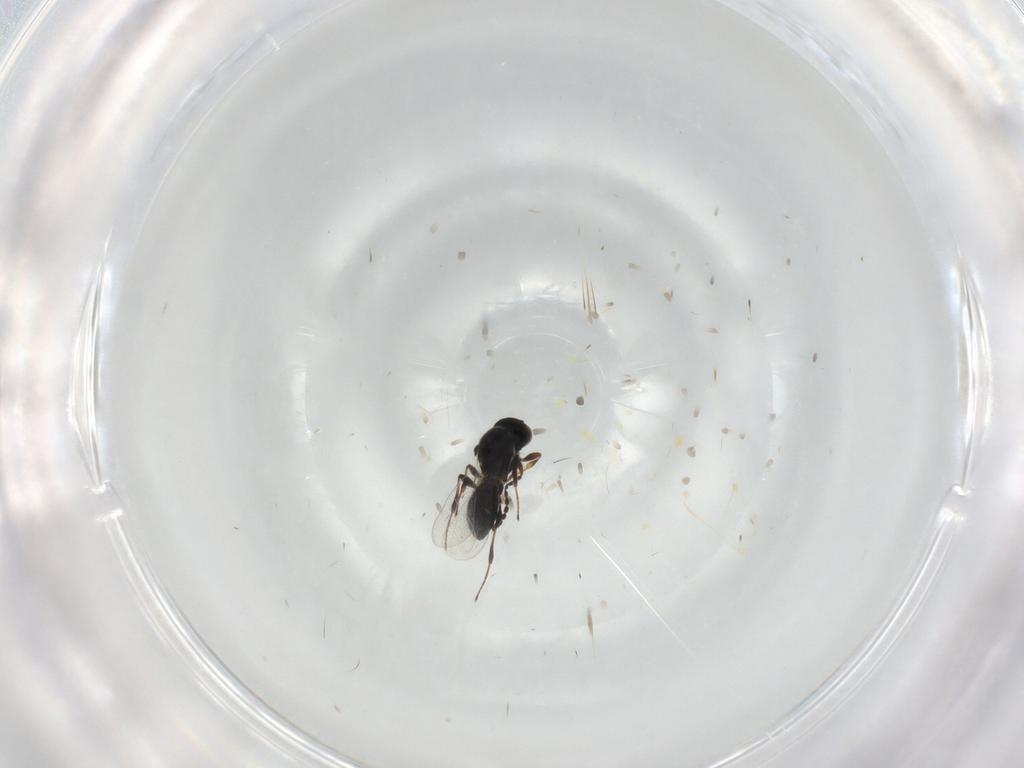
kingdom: Animalia
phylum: Arthropoda
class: Insecta
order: Hymenoptera
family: Platygastridae
